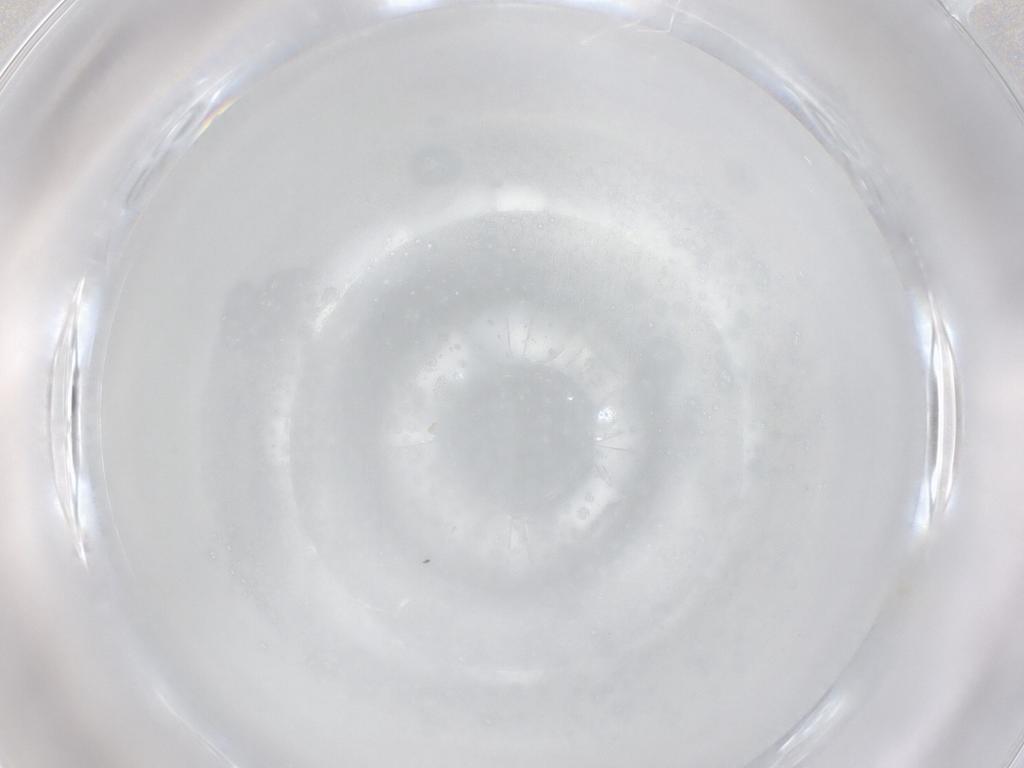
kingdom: Animalia
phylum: Arthropoda
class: Arachnida
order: Trombidiformes
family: Erythraeidae
